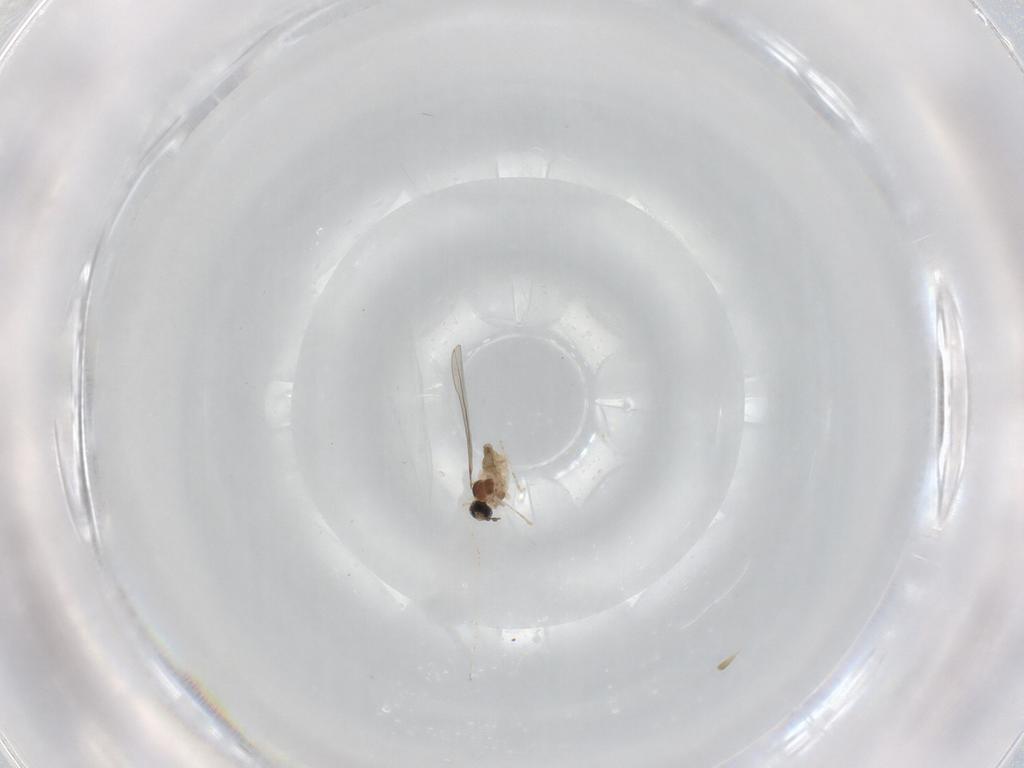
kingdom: Animalia
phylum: Arthropoda
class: Insecta
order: Diptera
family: Cecidomyiidae
